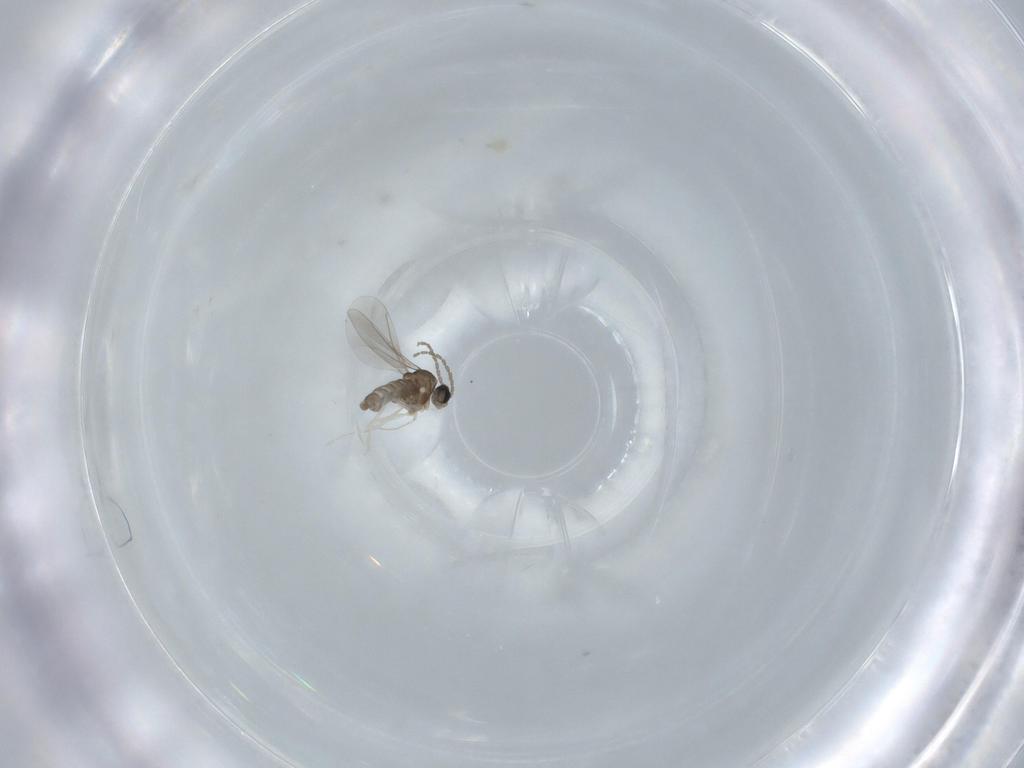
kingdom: Animalia
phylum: Arthropoda
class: Insecta
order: Diptera
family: Cecidomyiidae
